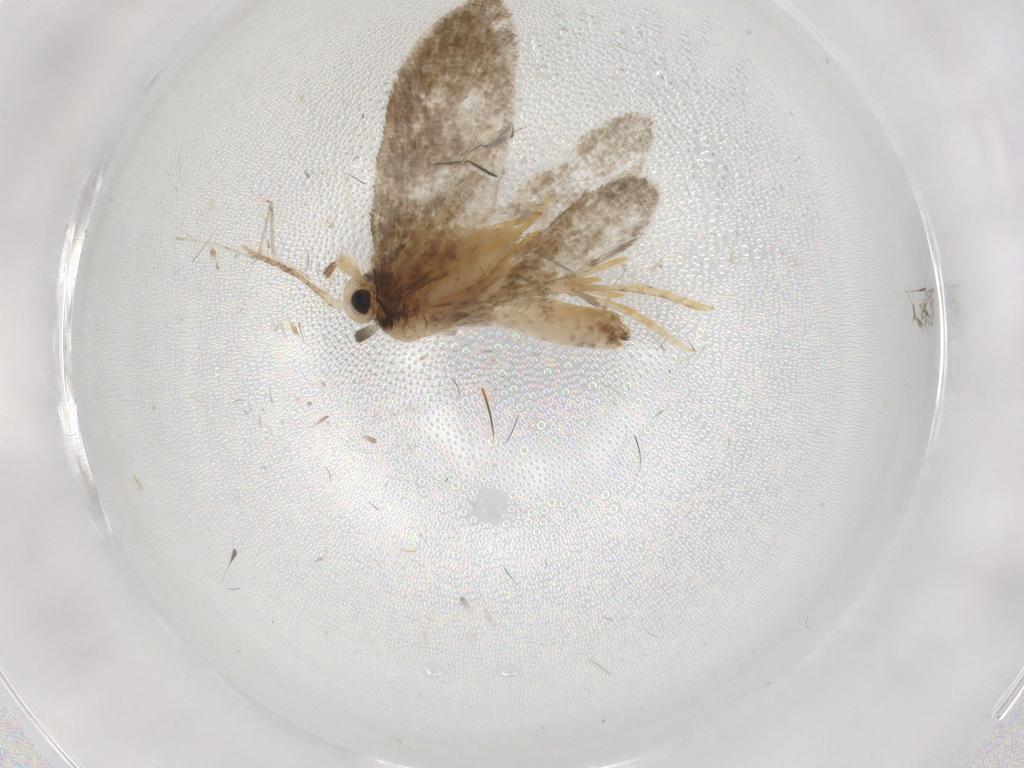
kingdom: Animalia
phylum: Arthropoda
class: Insecta
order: Lepidoptera
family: Psychidae
